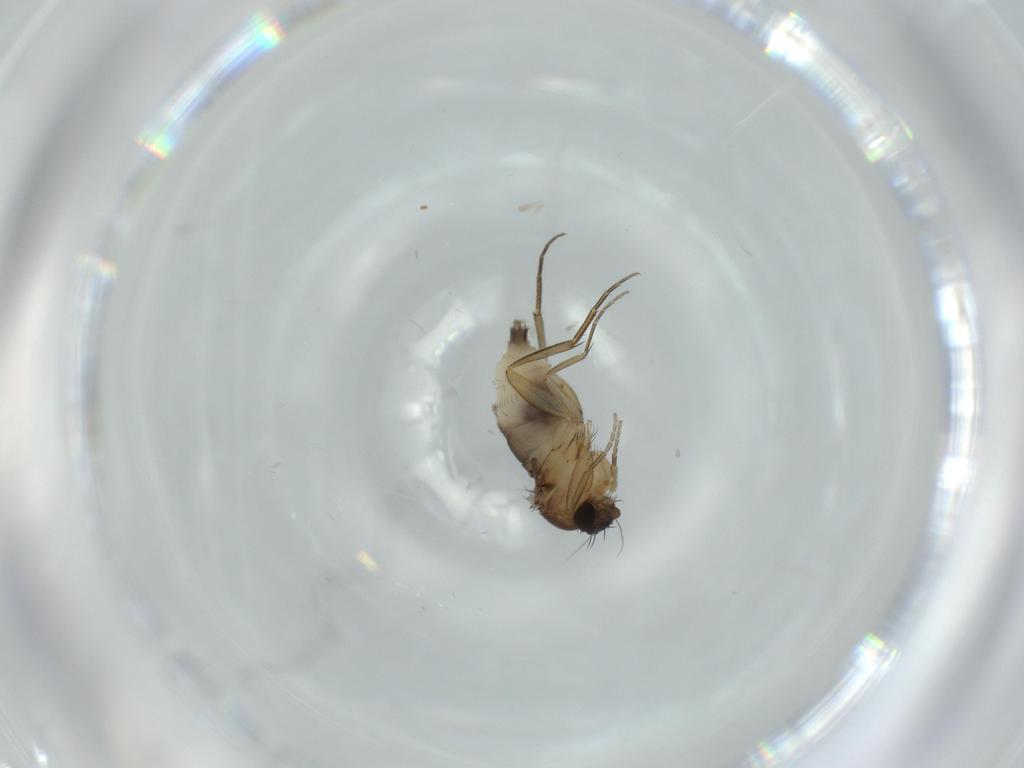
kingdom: Animalia
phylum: Arthropoda
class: Insecta
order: Diptera
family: Phoridae
